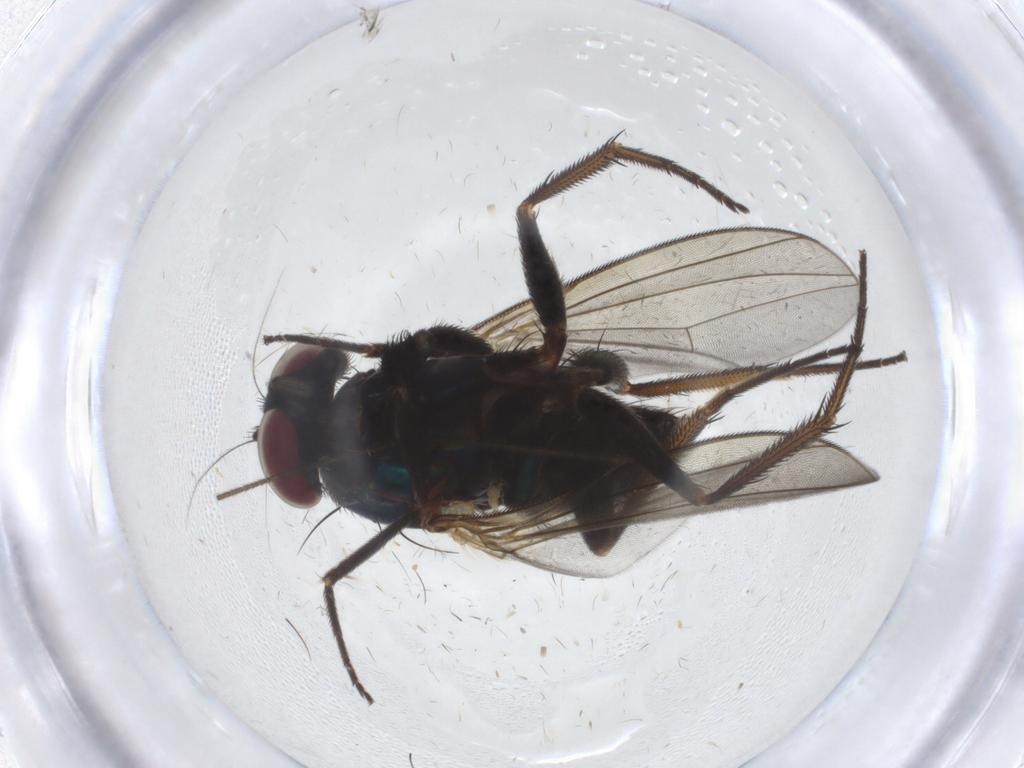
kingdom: Animalia
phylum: Arthropoda
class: Insecta
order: Diptera
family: Dolichopodidae
